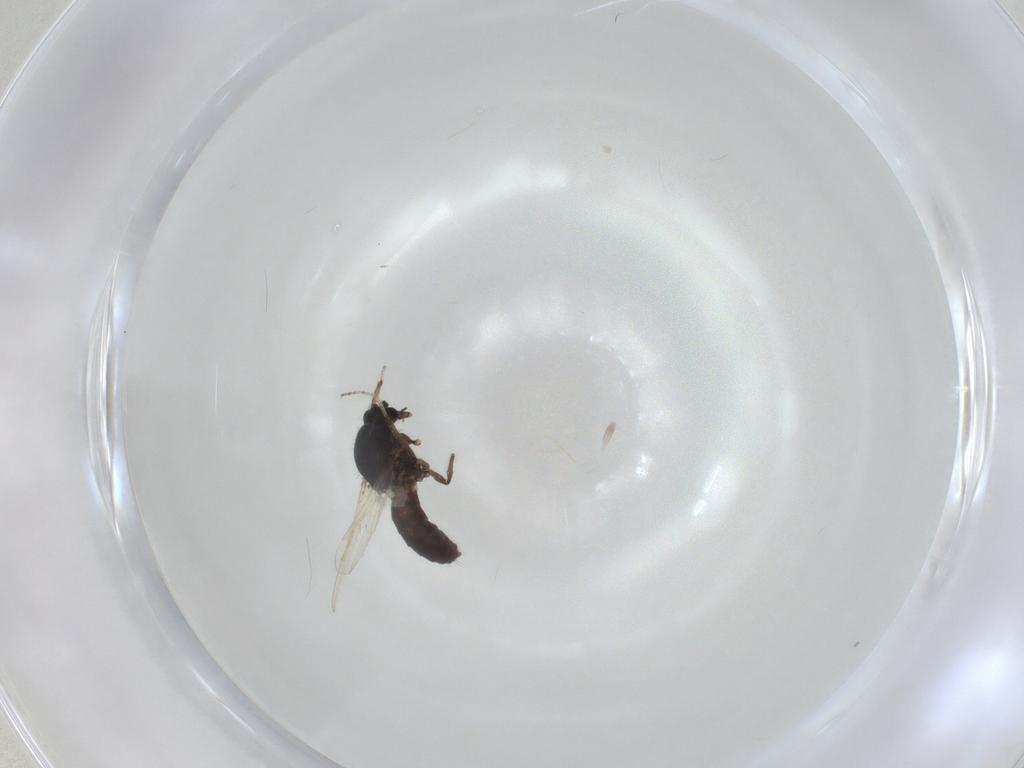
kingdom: Animalia
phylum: Arthropoda
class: Insecta
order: Diptera
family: Ceratopogonidae
